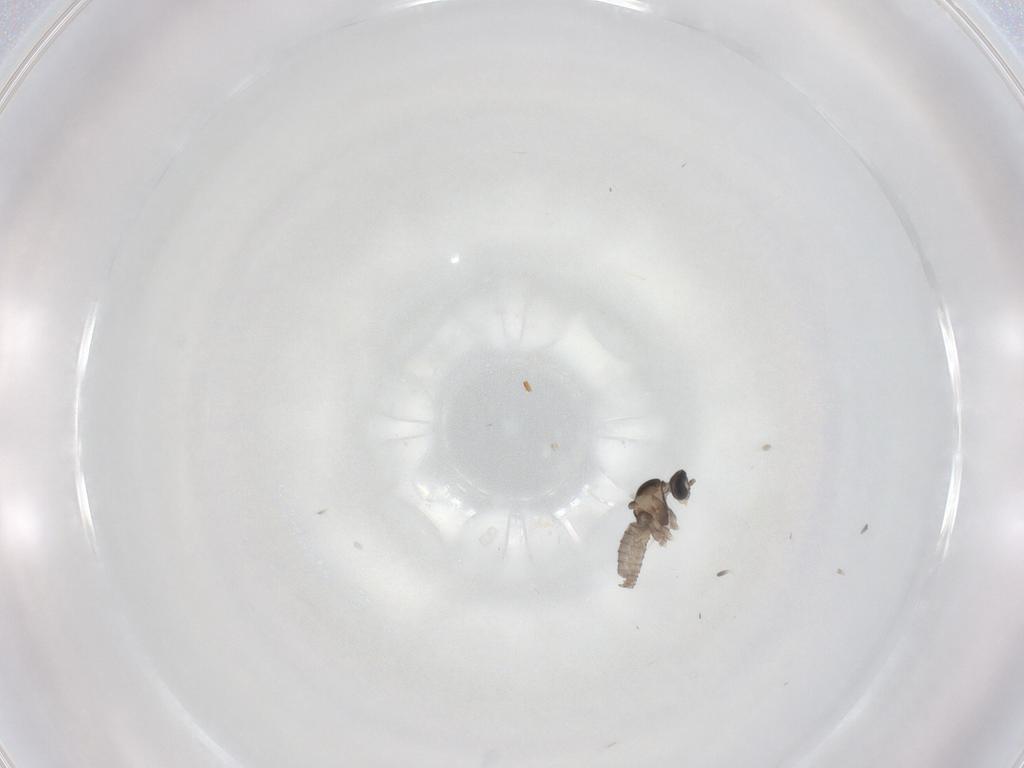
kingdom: Animalia
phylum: Arthropoda
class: Insecta
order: Diptera
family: Cecidomyiidae
